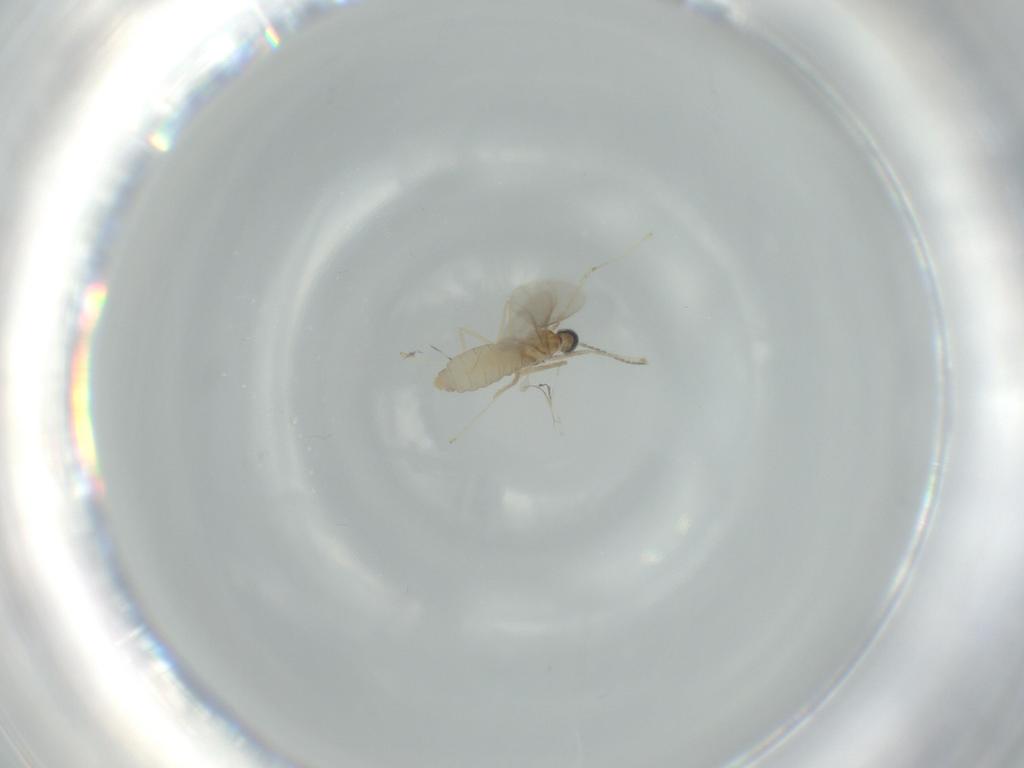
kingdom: Animalia
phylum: Arthropoda
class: Insecta
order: Diptera
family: Cecidomyiidae
